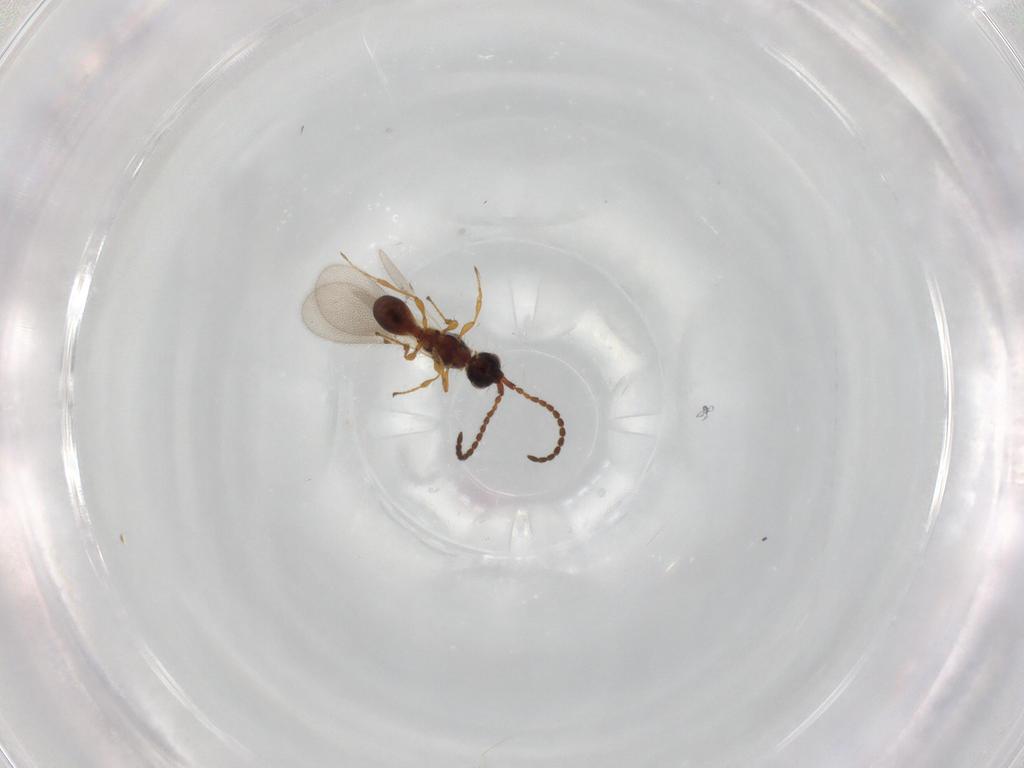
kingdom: Animalia
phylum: Arthropoda
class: Insecta
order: Hymenoptera
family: Diapriidae
